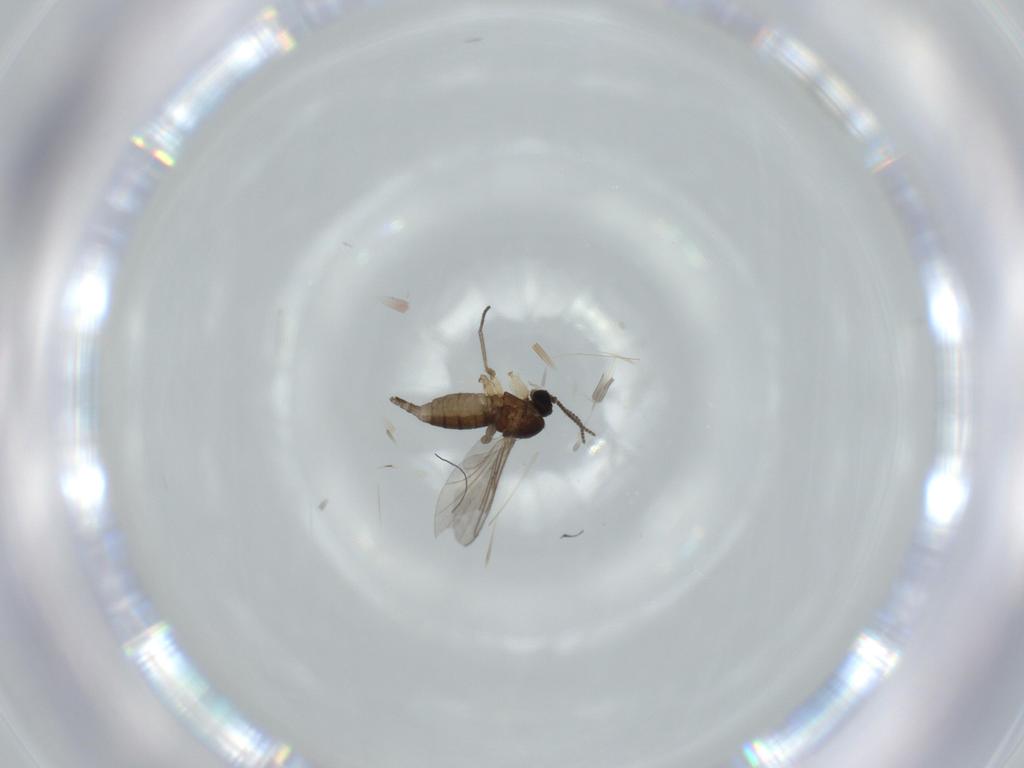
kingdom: Animalia
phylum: Arthropoda
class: Insecta
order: Diptera
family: Sciaridae
